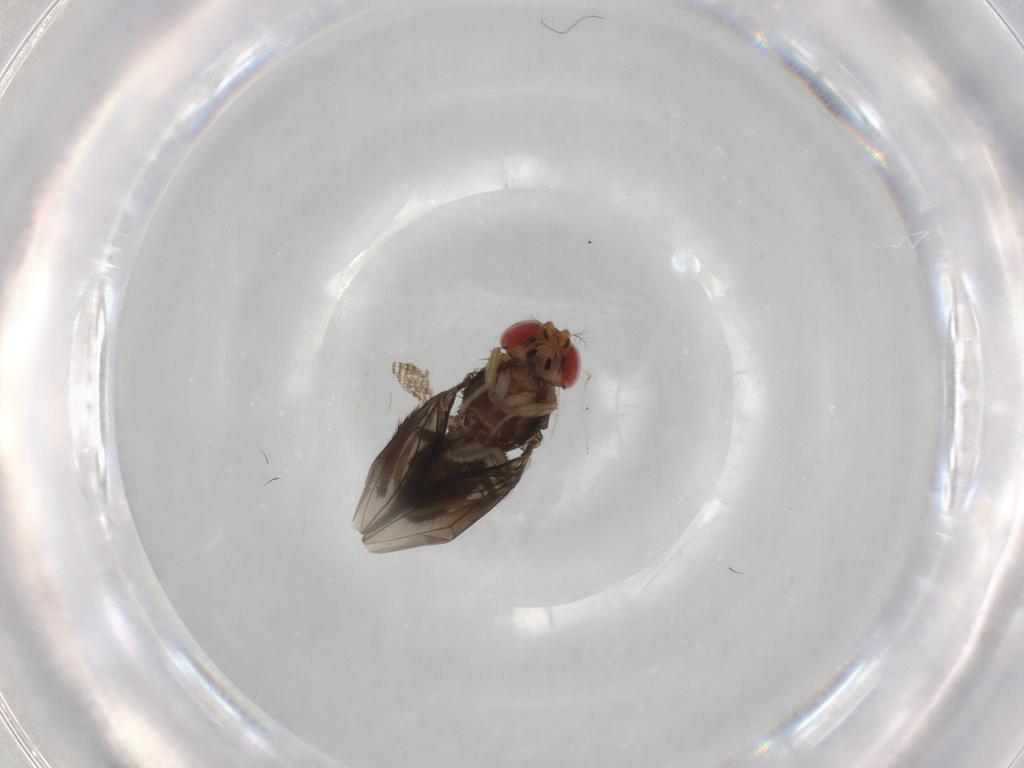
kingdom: Animalia
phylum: Arthropoda
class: Insecta
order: Diptera
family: Drosophilidae
